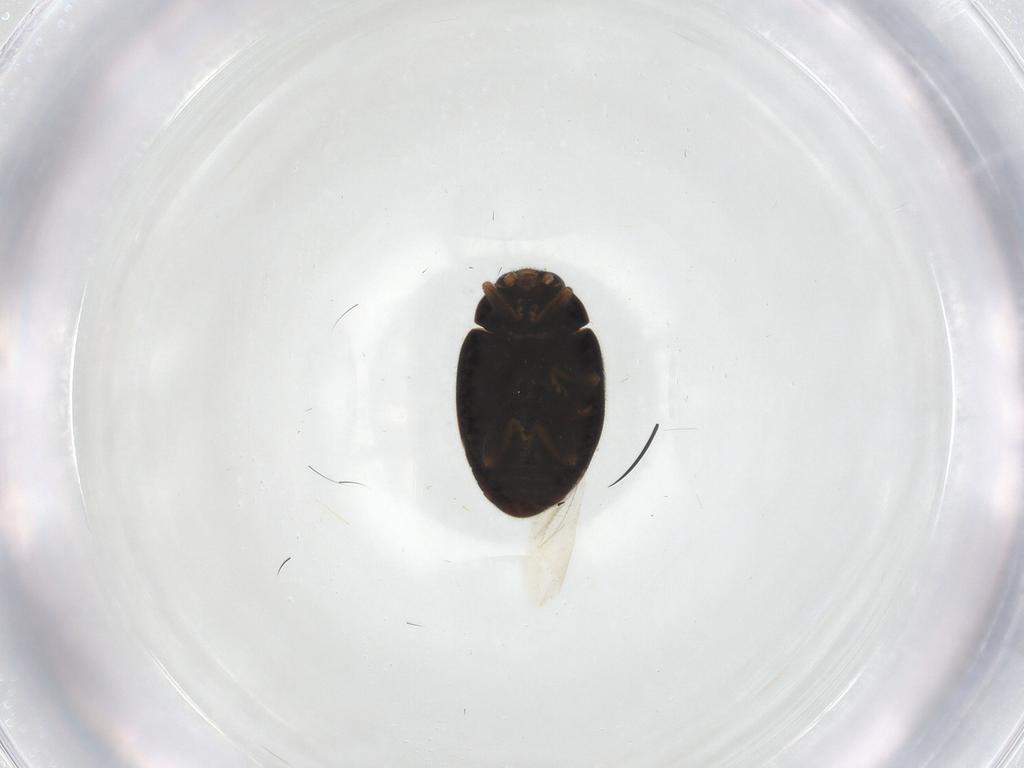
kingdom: Animalia
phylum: Arthropoda
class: Insecta
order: Coleoptera
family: Coccinellidae
